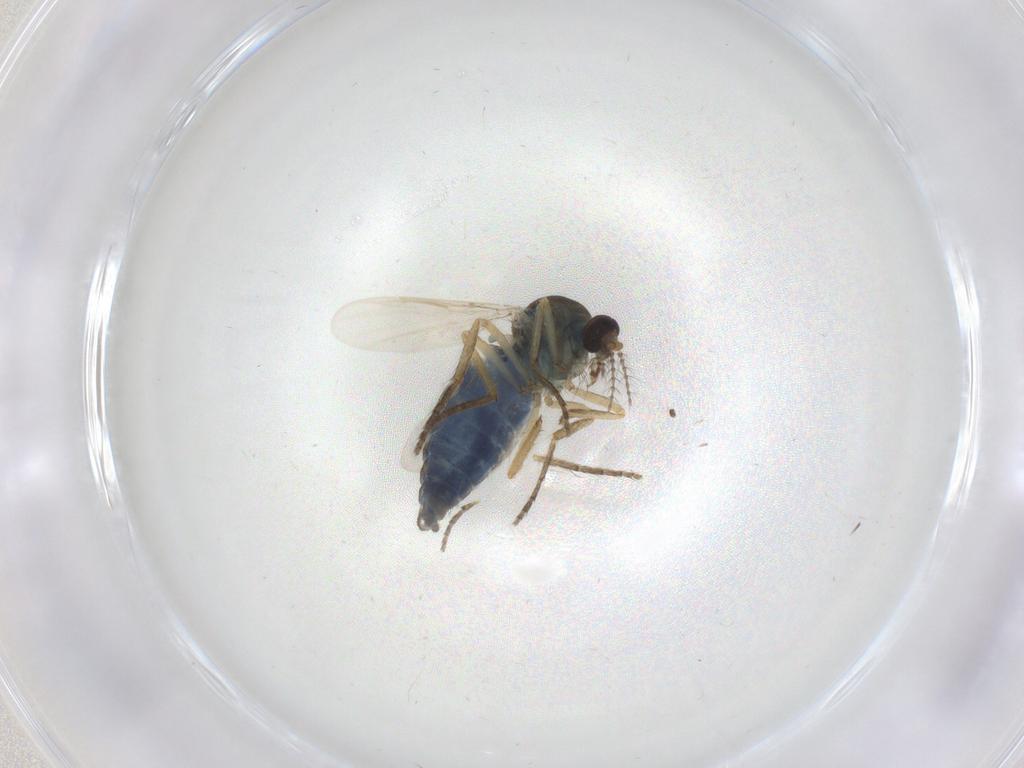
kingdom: Animalia
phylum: Arthropoda
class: Insecta
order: Diptera
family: Ceratopogonidae
